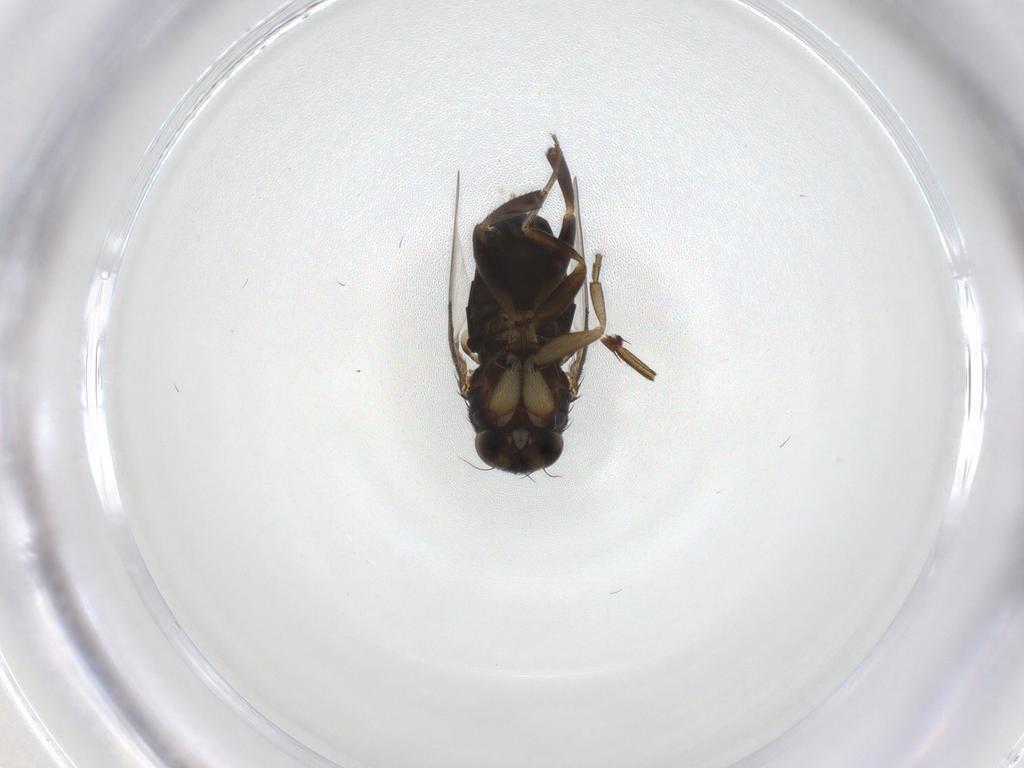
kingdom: Animalia
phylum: Arthropoda
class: Insecta
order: Diptera
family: Phoridae
